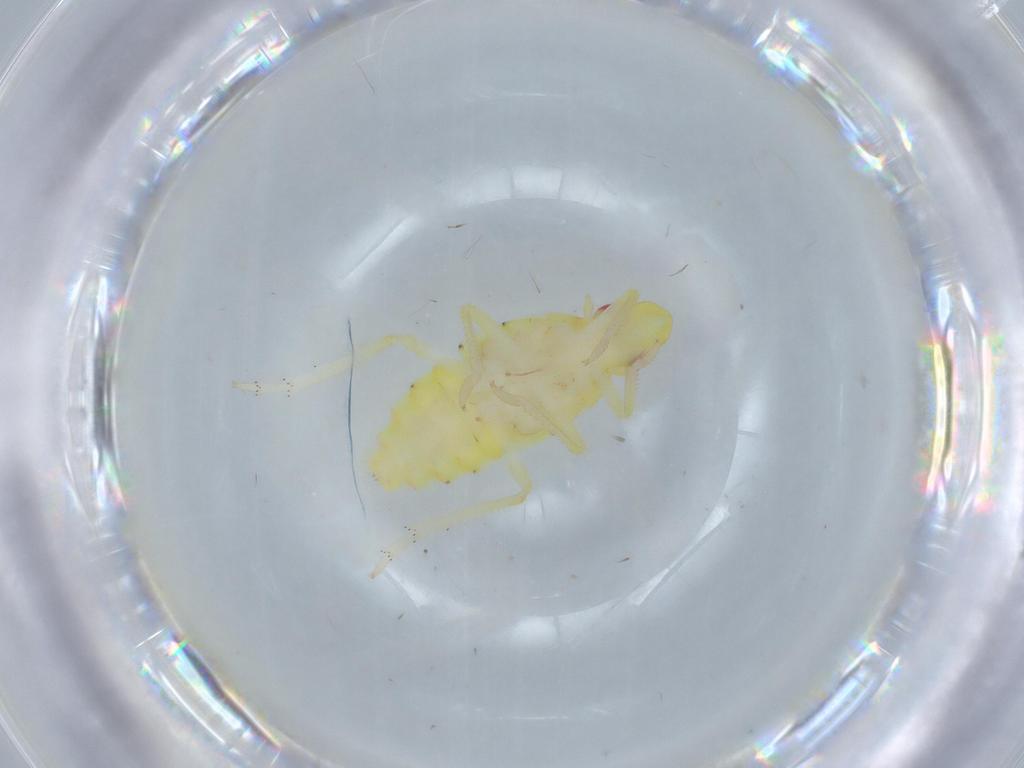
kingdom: Animalia
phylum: Arthropoda
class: Insecta
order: Hemiptera
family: Tropiduchidae
